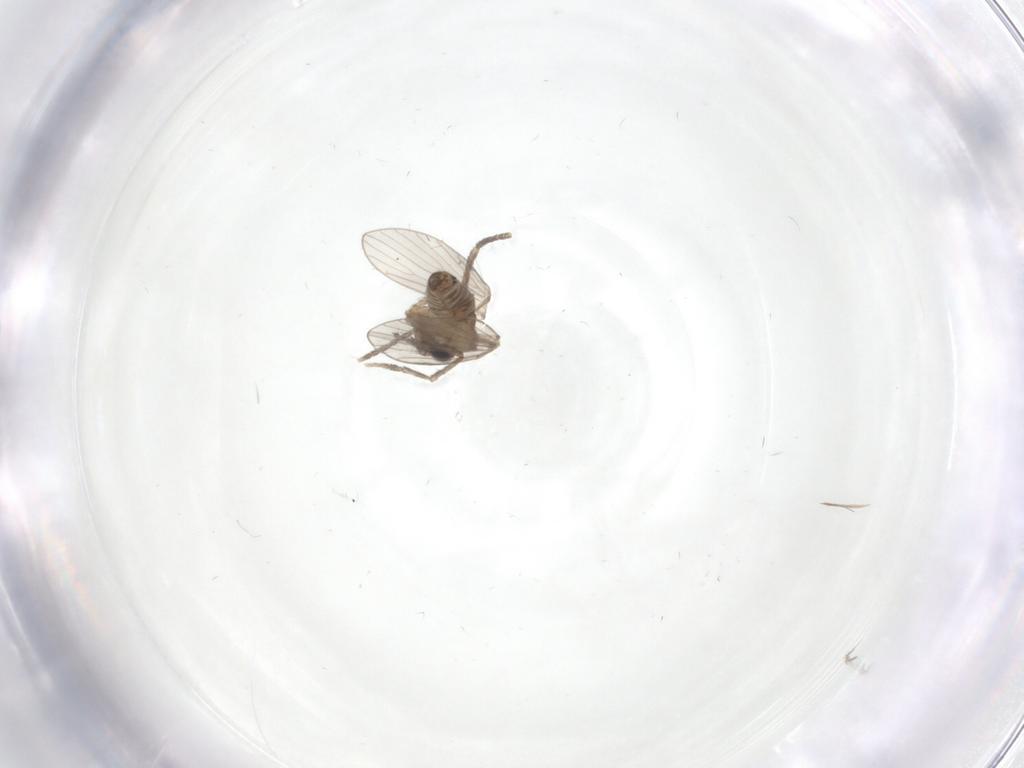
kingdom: Animalia
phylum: Arthropoda
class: Insecta
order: Diptera
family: Psychodidae
